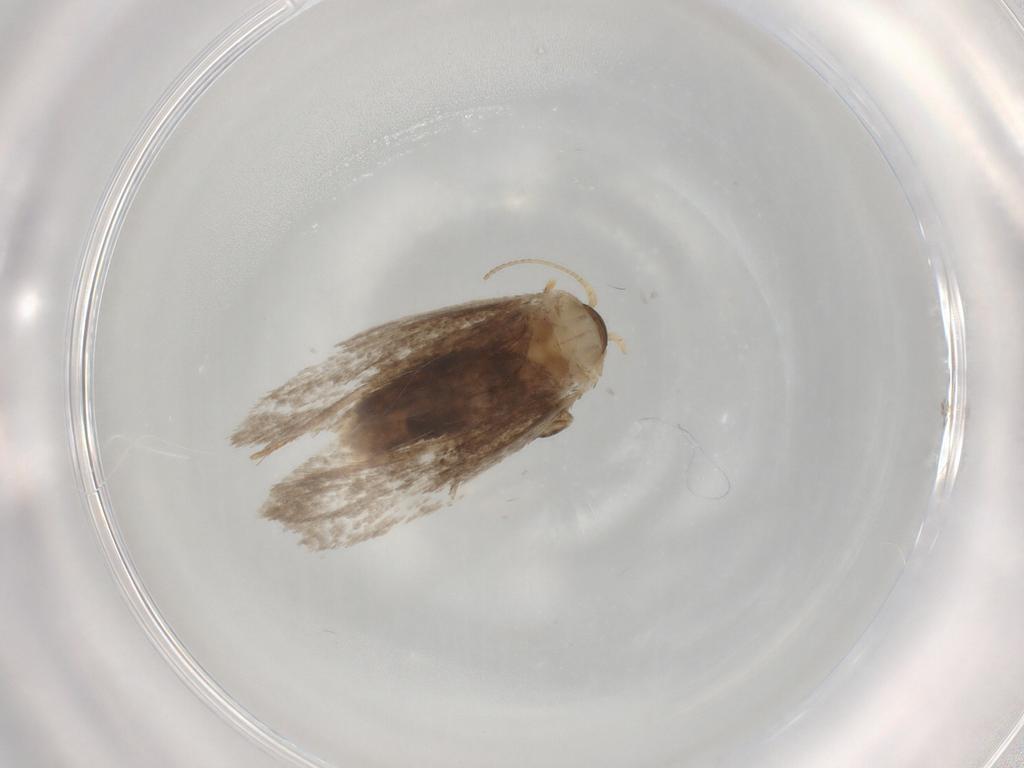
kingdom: Animalia
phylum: Arthropoda
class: Insecta
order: Lepidoptera
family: Dryadaulidae
